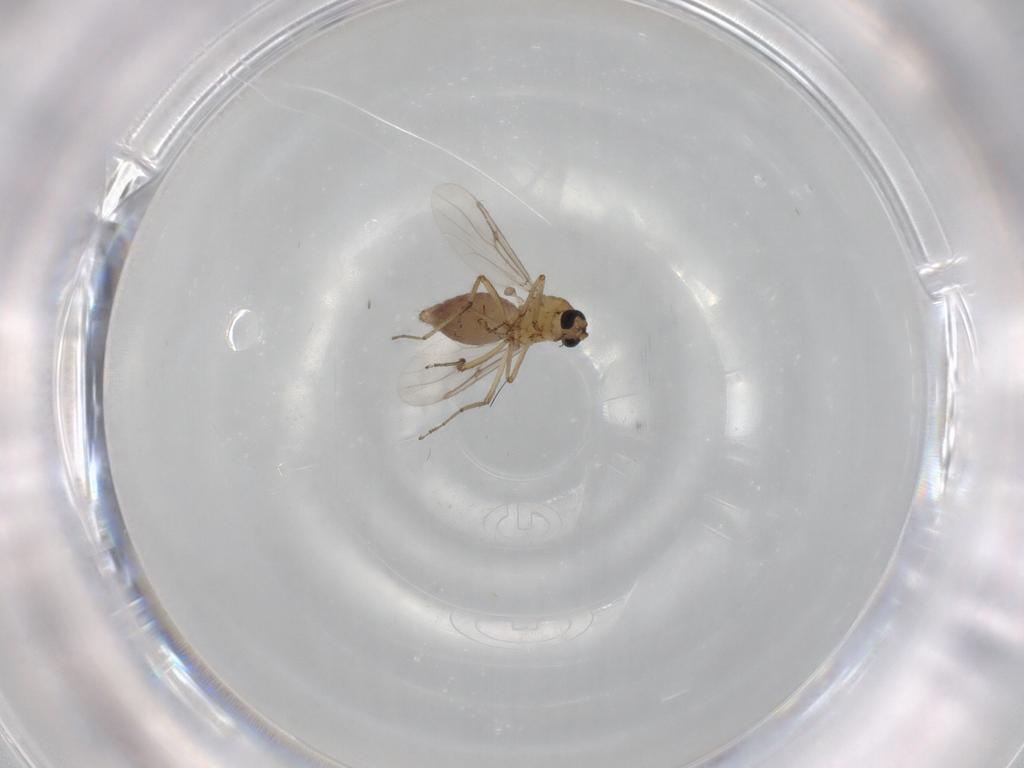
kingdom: Animalia
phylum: Arthropoda
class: Insecta
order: Diptera
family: Ceratopogonidae
